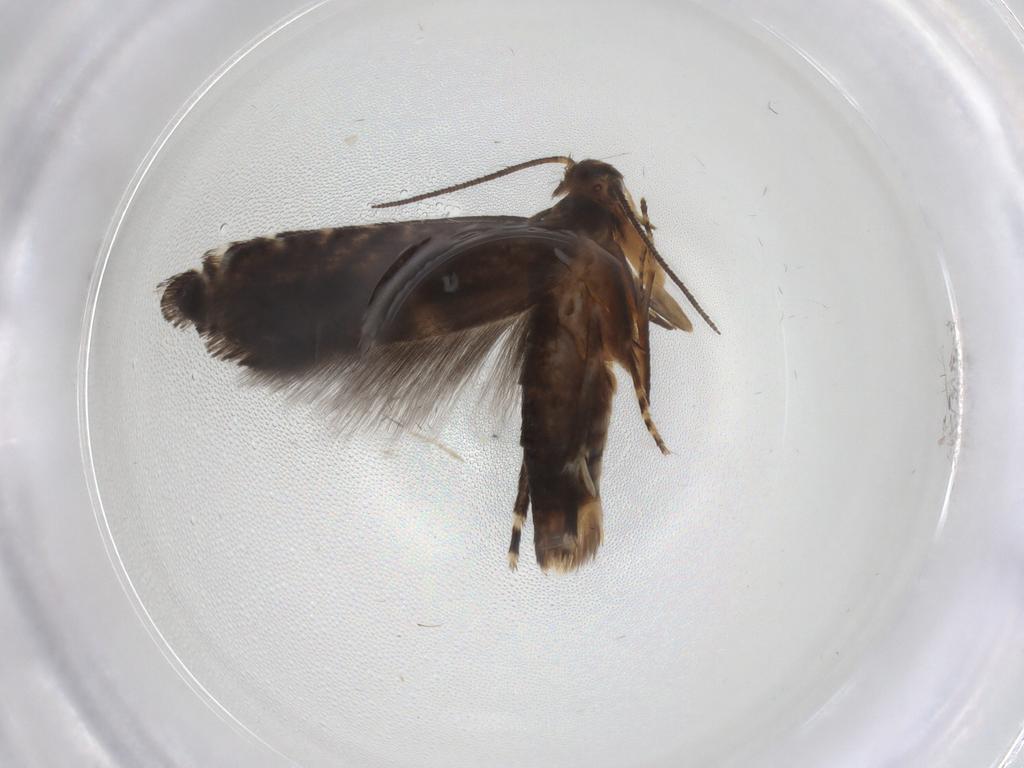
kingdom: Animalia
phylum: Arthropoda
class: Insecta
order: Lepidoptera
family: Glyphipterigidae
